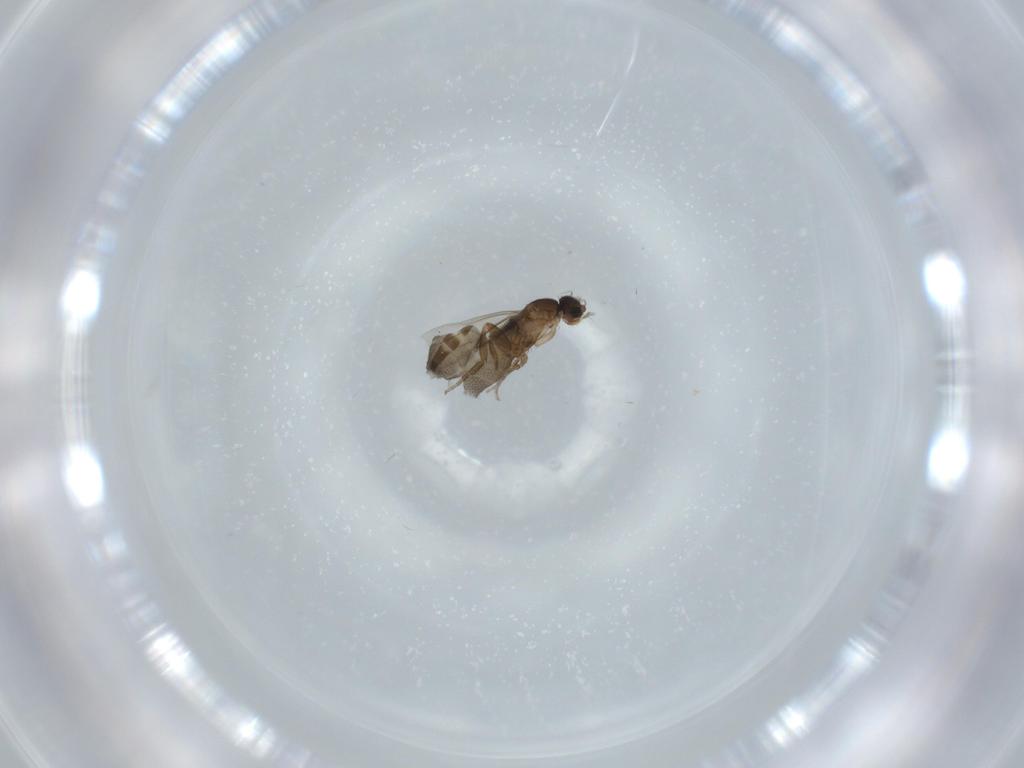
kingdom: Animalia
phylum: Arthropoda
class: Insecta
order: Diptera
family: Phoridae
